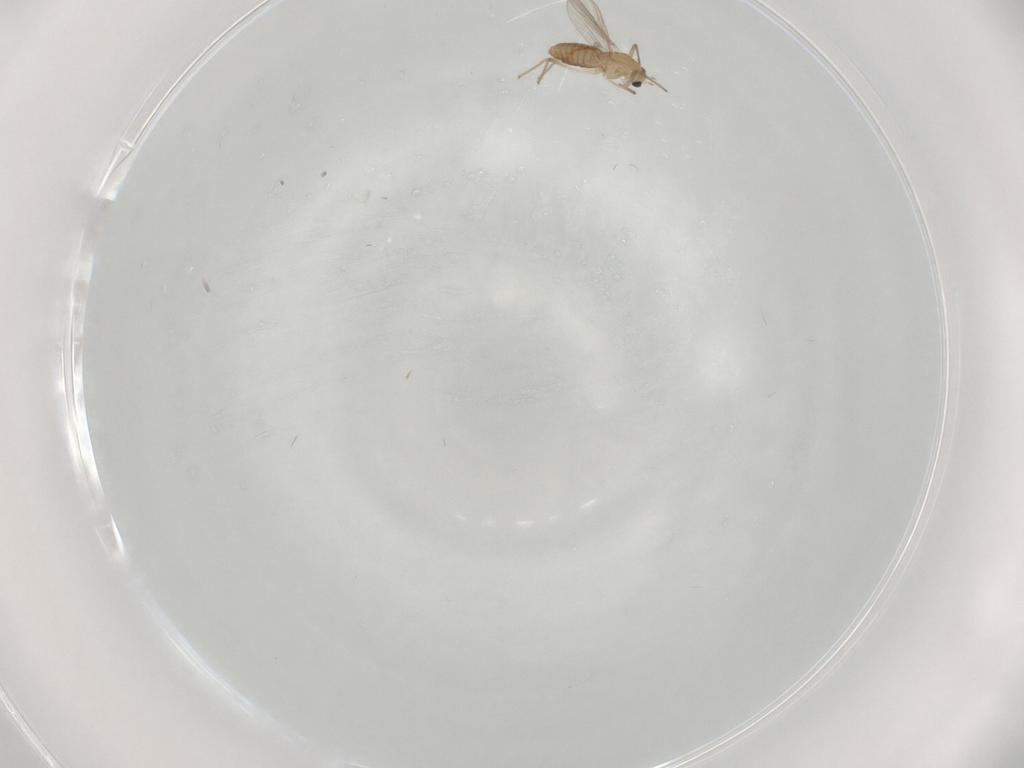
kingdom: Animalia
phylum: Arthropoda
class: Insecta
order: Diptera
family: Chironomidae
